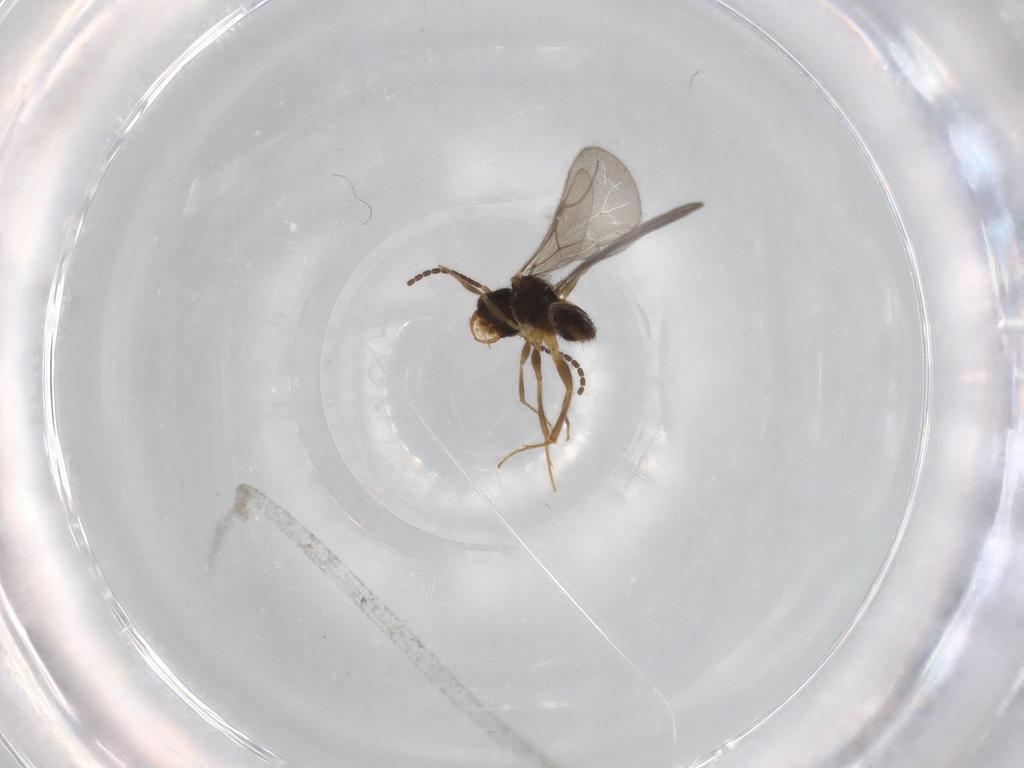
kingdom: Animalia
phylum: Arthropoda
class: Insecta
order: Hymenoptera
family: Bethylidae
